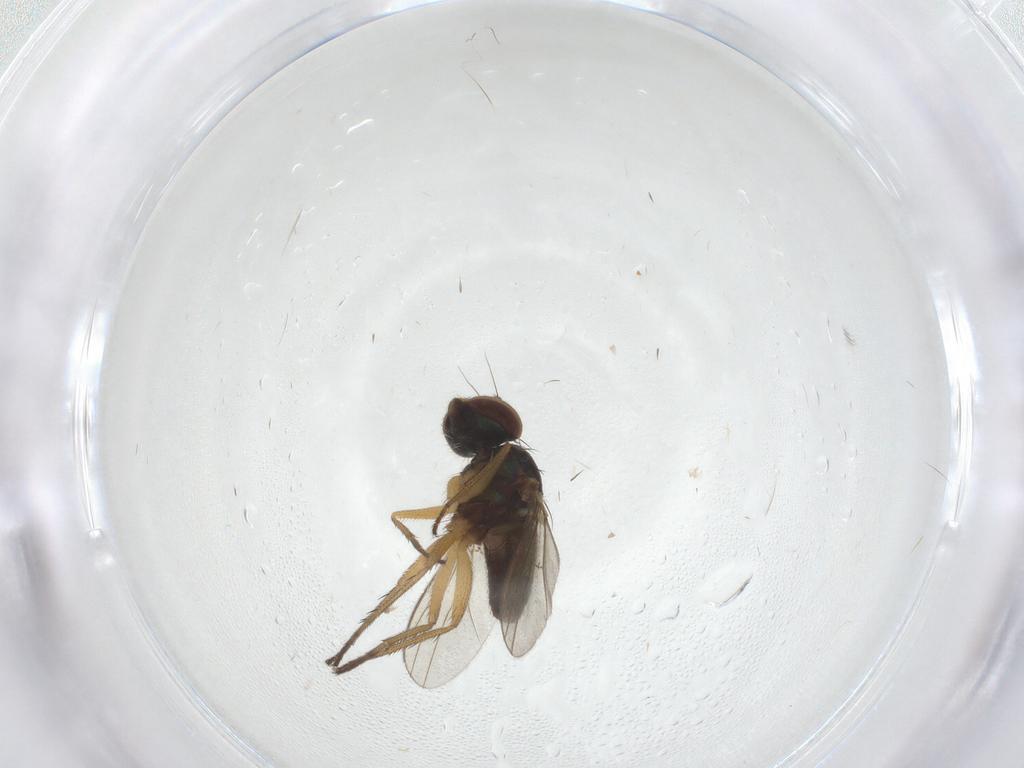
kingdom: Animalia
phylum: Arthropoda
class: Insecta
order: Diptera
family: Dolichopodidae
